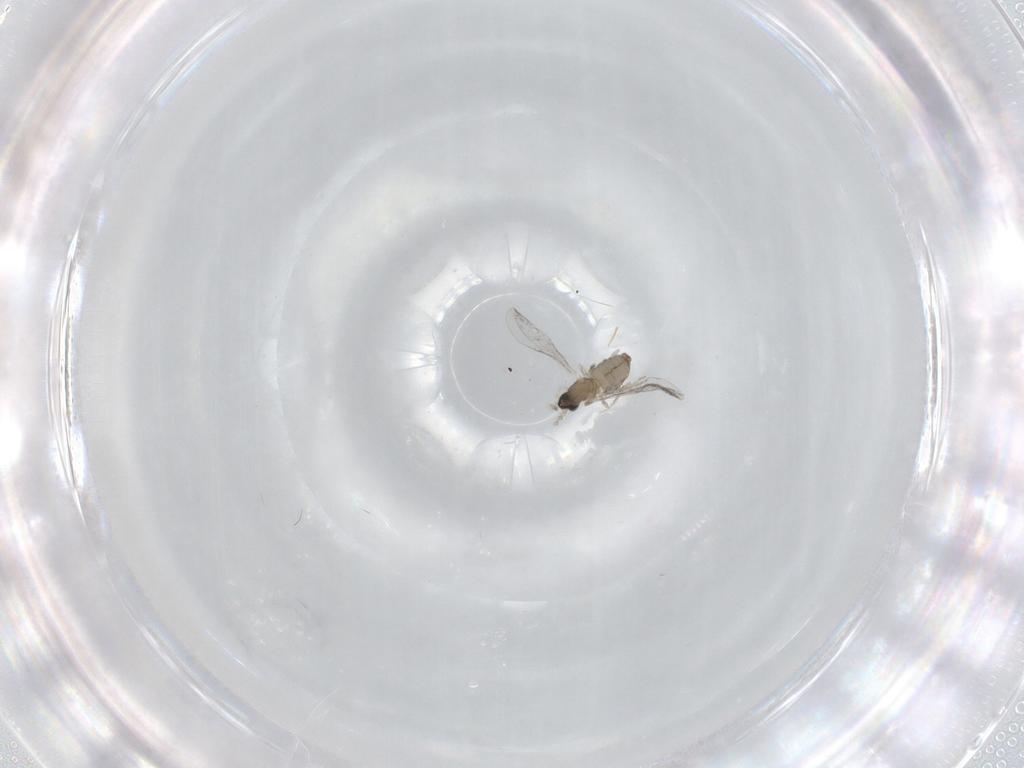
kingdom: Animalia
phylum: Arthropoda
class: Insecta
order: Diptera
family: Cecidomyiidae
